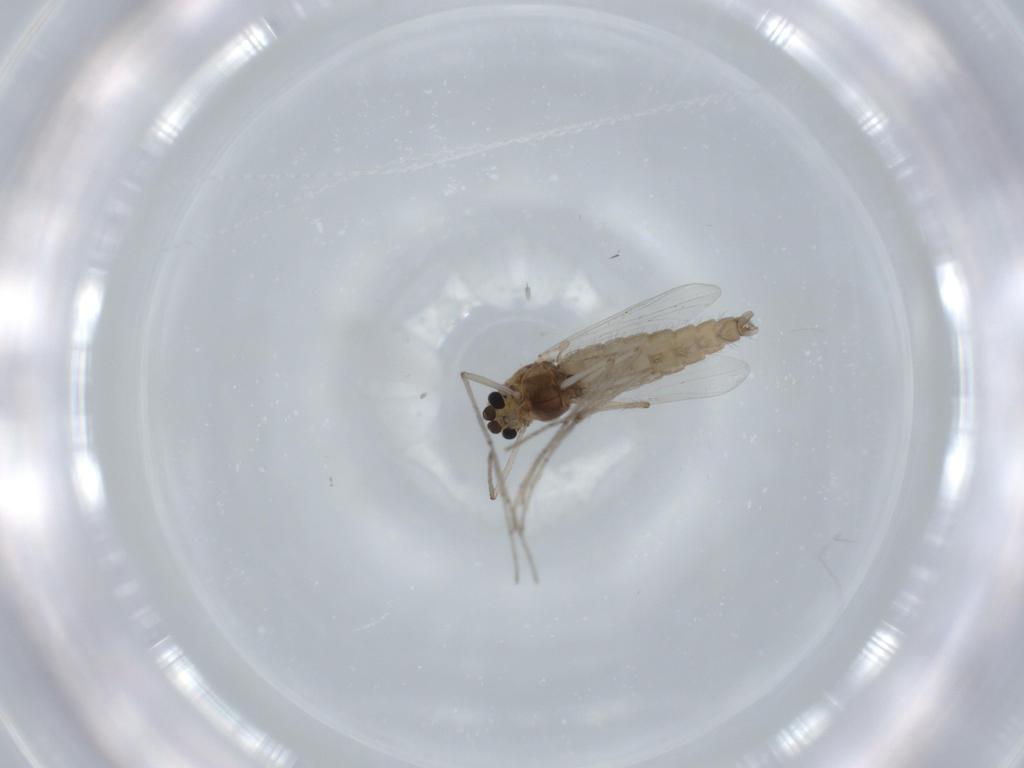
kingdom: Animalia
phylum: Arthropoda
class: Insecta
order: Diptera
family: Chironomidae
